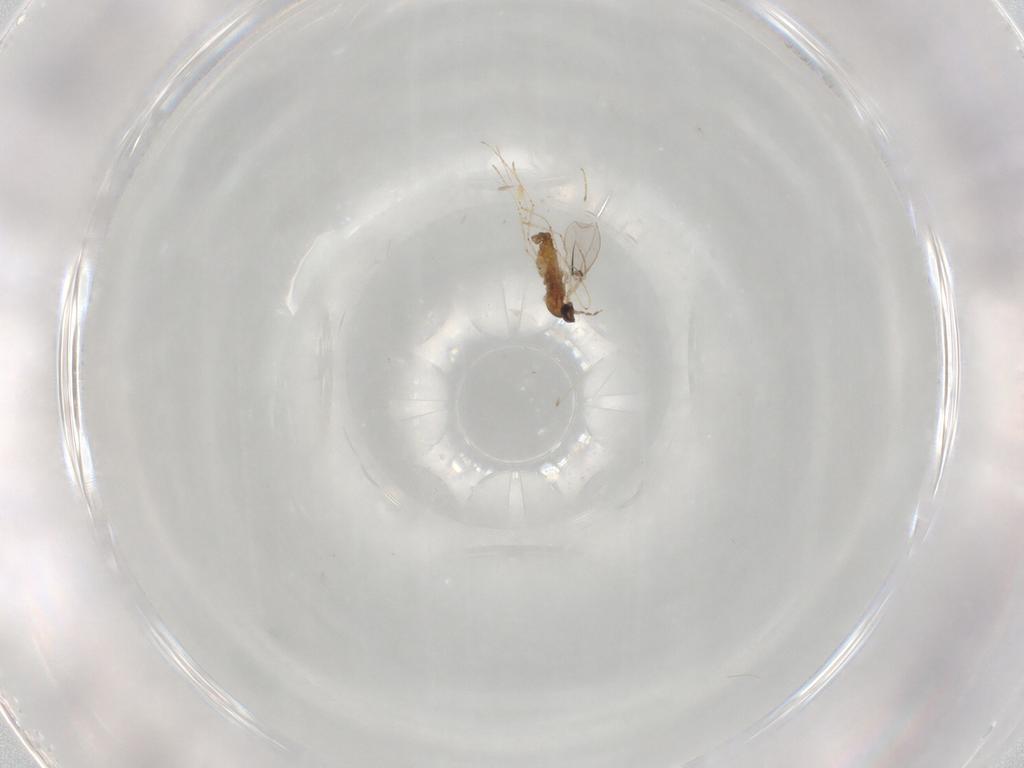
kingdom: Animalia
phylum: Arthropoda
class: Insecta
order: Diptera
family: Cecidomyiidae
